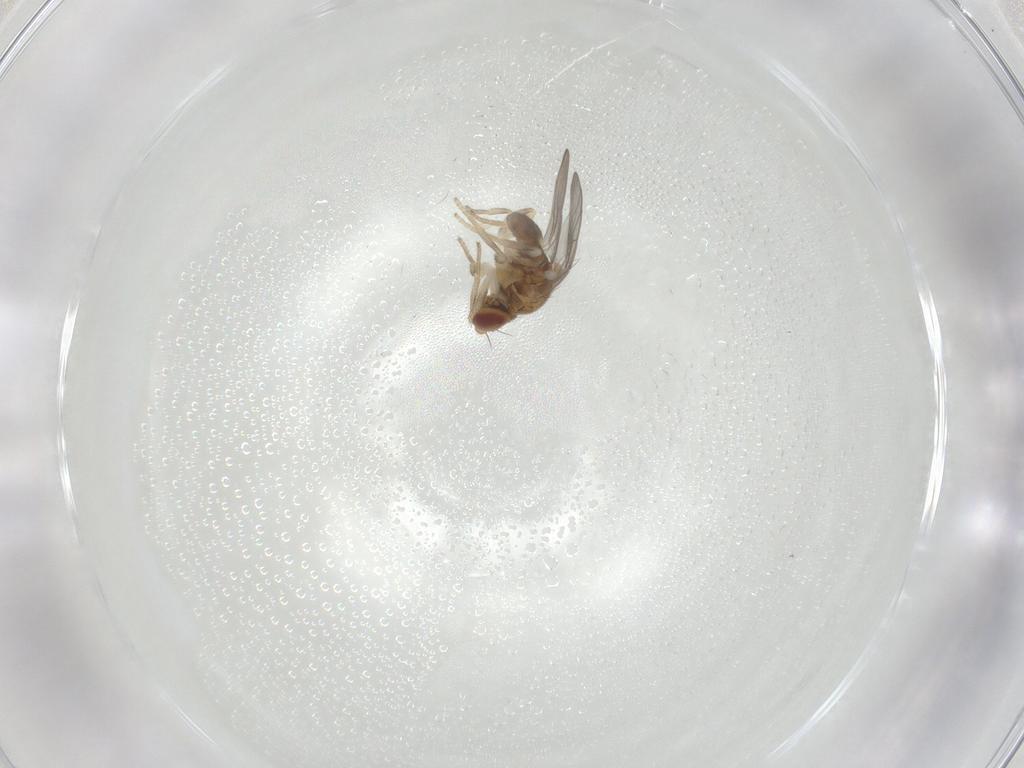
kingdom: Animalia
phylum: Arthropoda
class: Insecta
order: Diptera
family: Chloropidae
